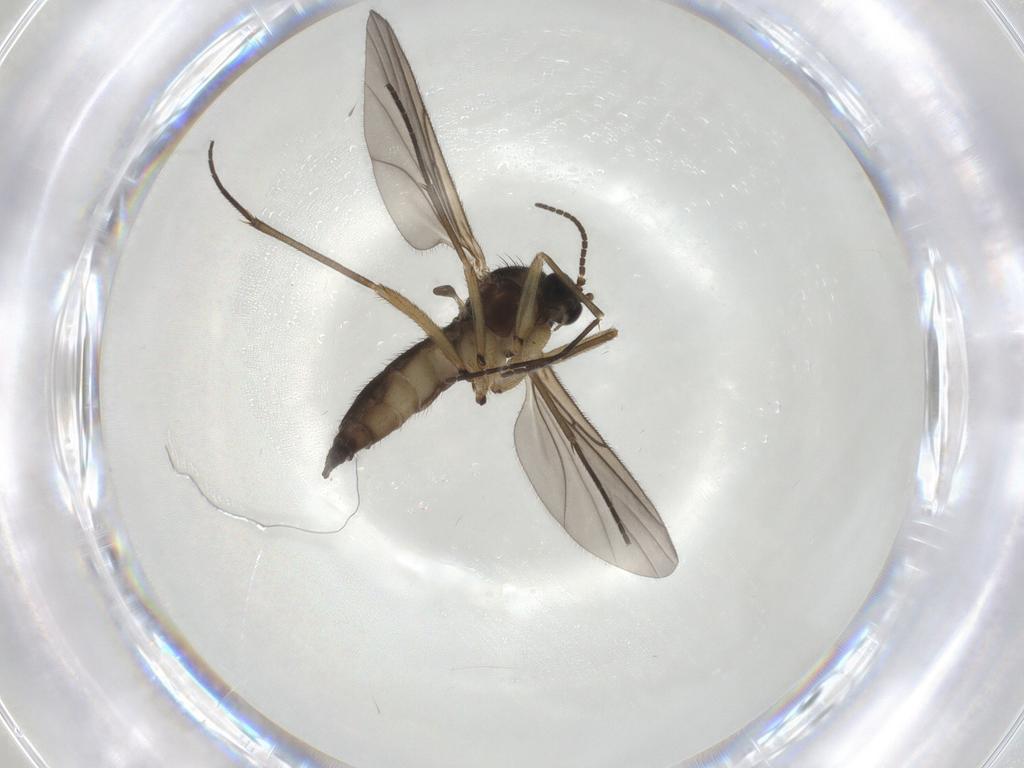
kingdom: Animalia
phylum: Arthropoda
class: Insecta
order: Diptera
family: Sciaridae
